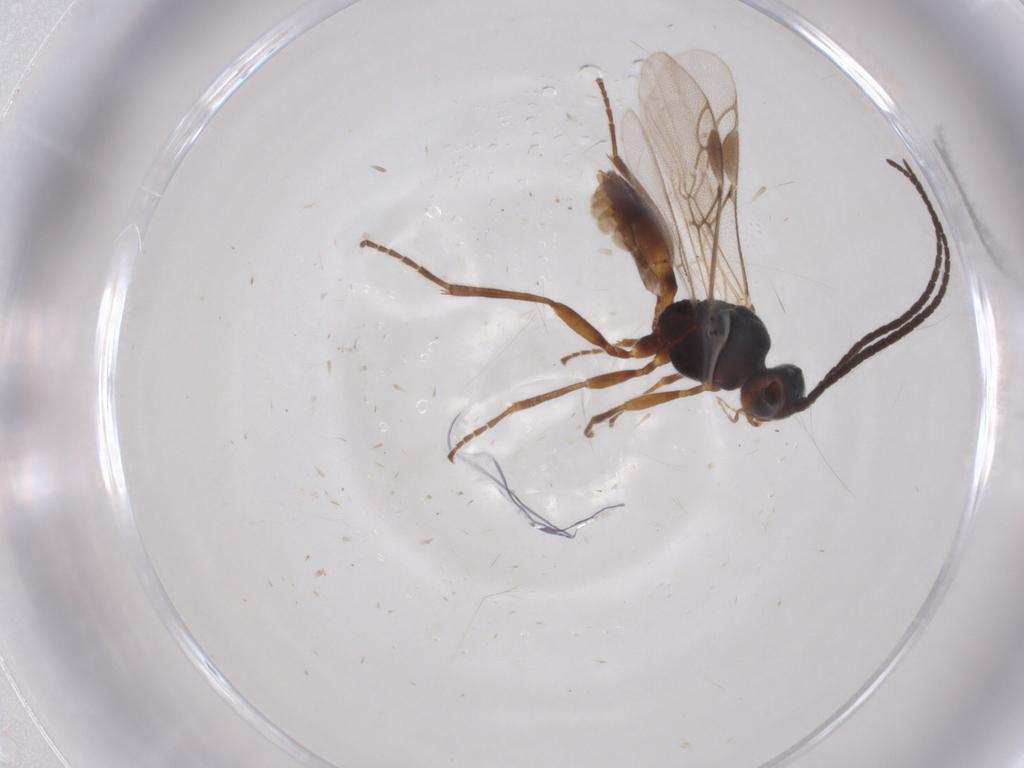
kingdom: Animalia
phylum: Arthropoda
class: Insecta
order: Hymenoptera
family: Braconidae
